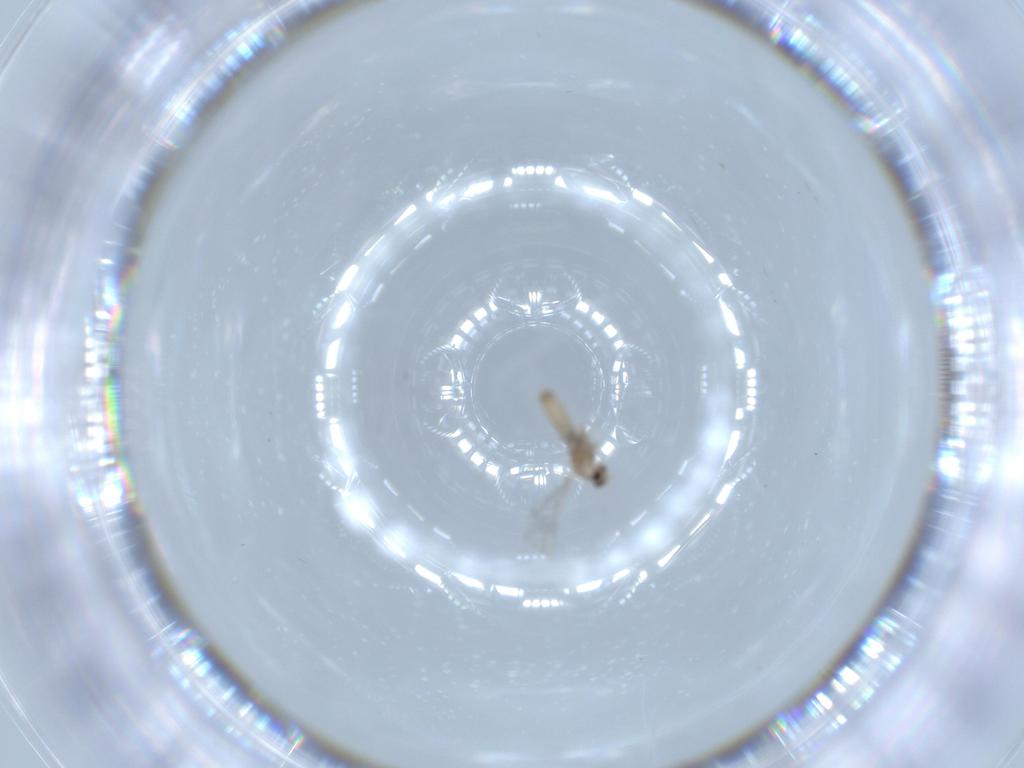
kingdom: Animalia
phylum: Arthropoda
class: Insecta
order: Diptera
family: Cecidomyiidae
